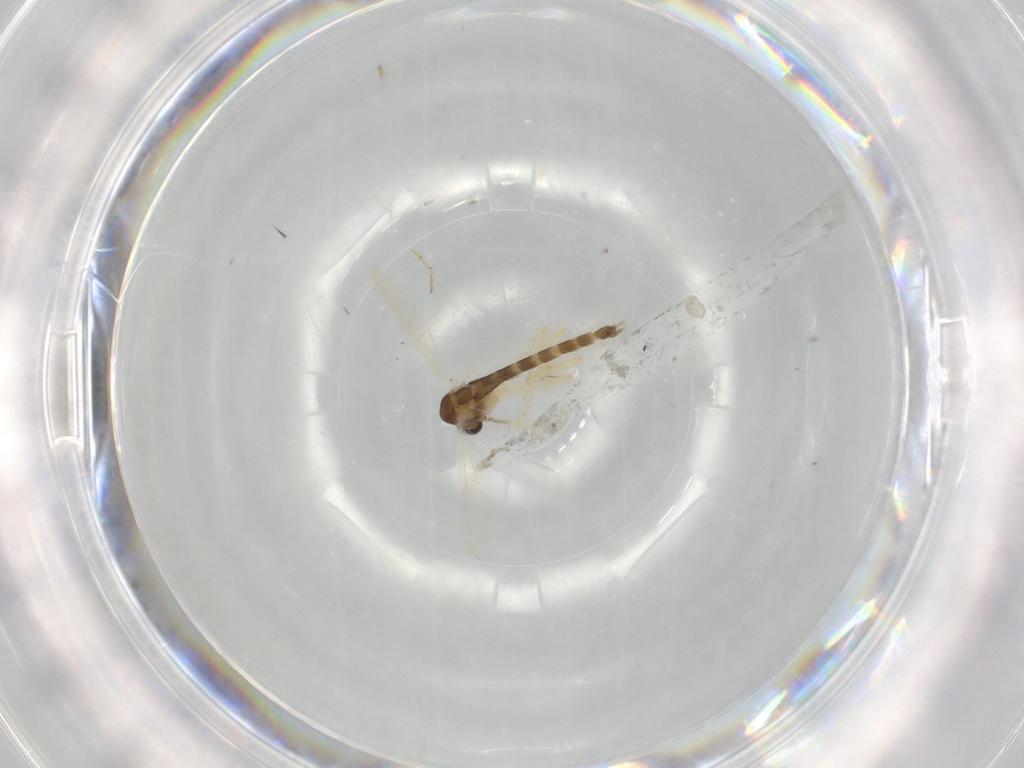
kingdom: Animalia
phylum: Arthropoda
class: Insecta
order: Diptera
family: Chironomidae
